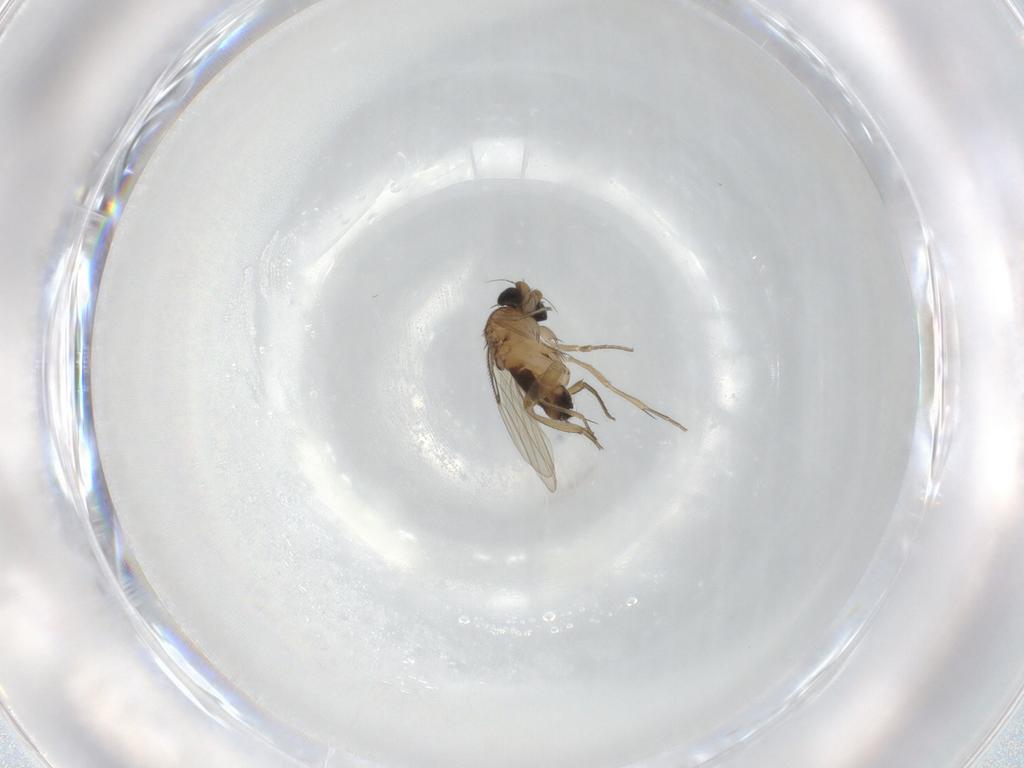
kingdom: Animalia
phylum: Arthropoda
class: Insecta
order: Diptera
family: Phoridae
